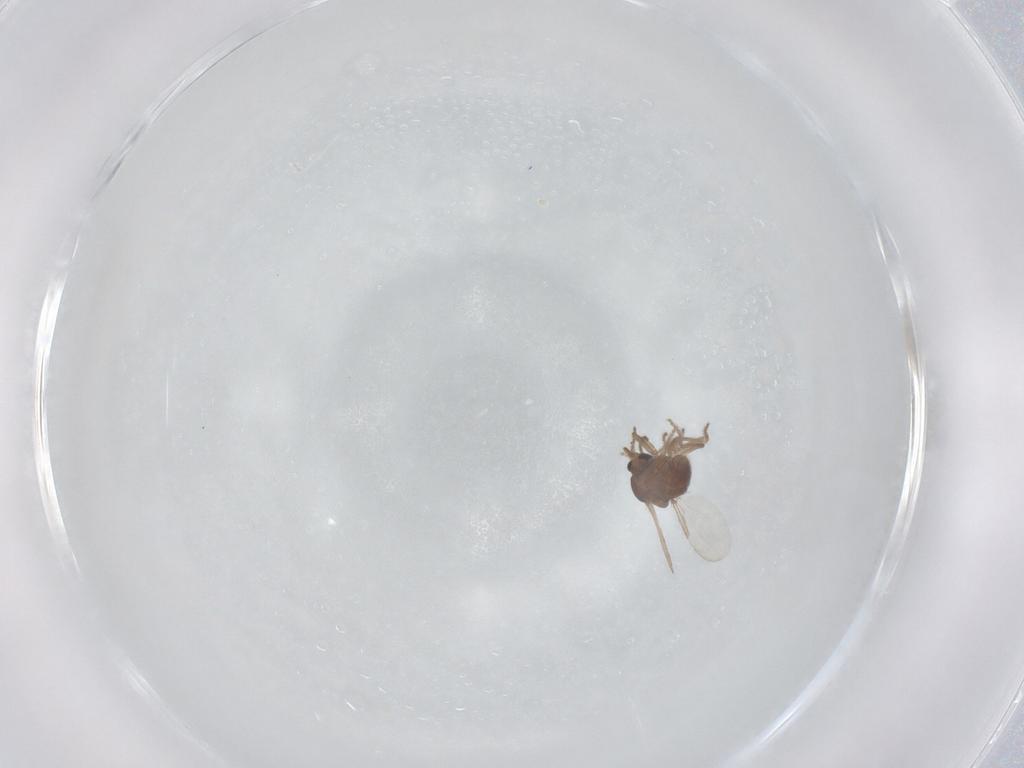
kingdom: Animalia
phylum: Arthropoda
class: Insecta
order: Diptera
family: Ceratopogonidae
